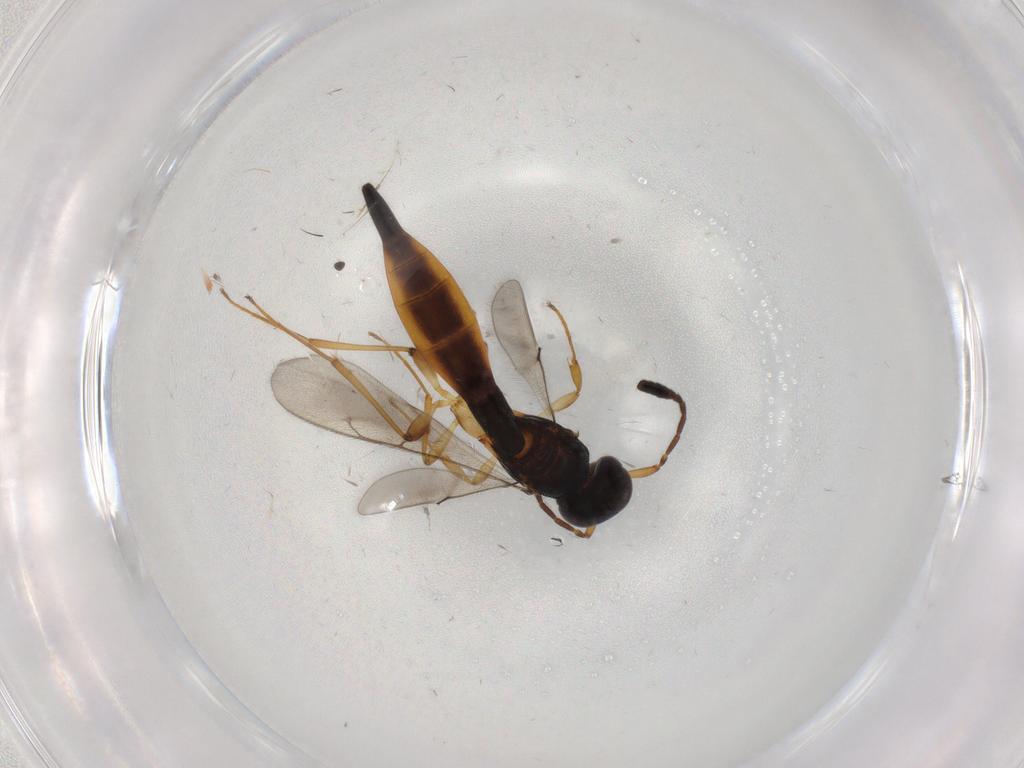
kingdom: Animalia
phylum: Arthropoda
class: Insecta
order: Hymenoptera
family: Scelionidae
